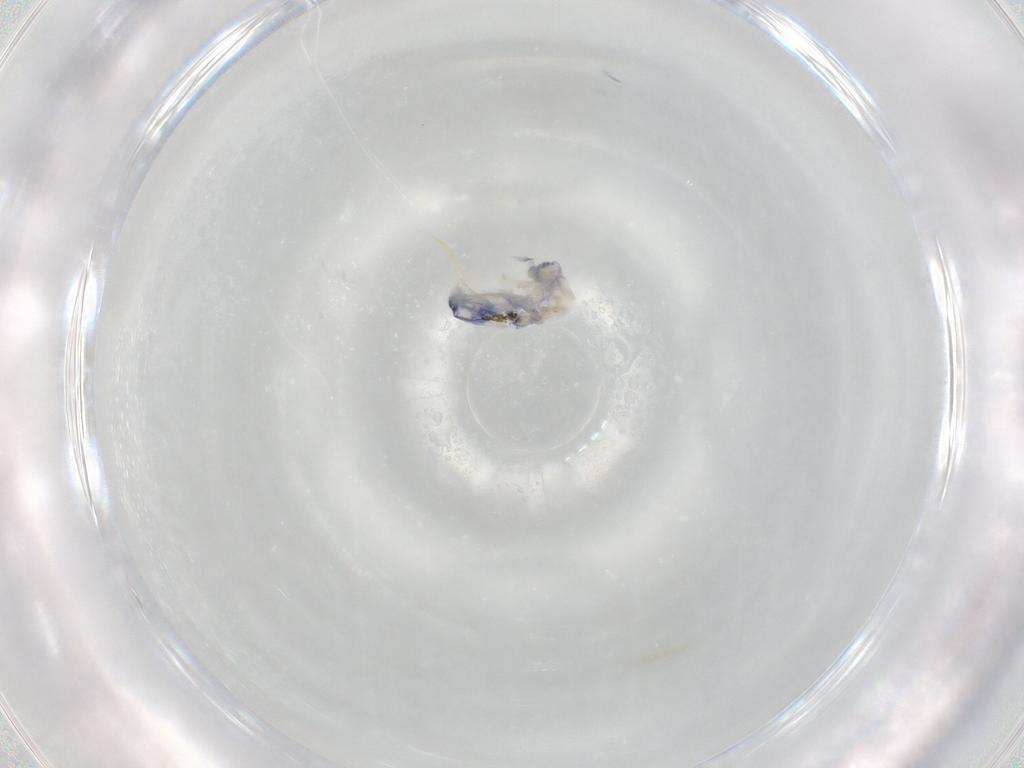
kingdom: Animalia
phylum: Arthropoda
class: Collembola
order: Entomobryomorpha
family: Entomobryidae
